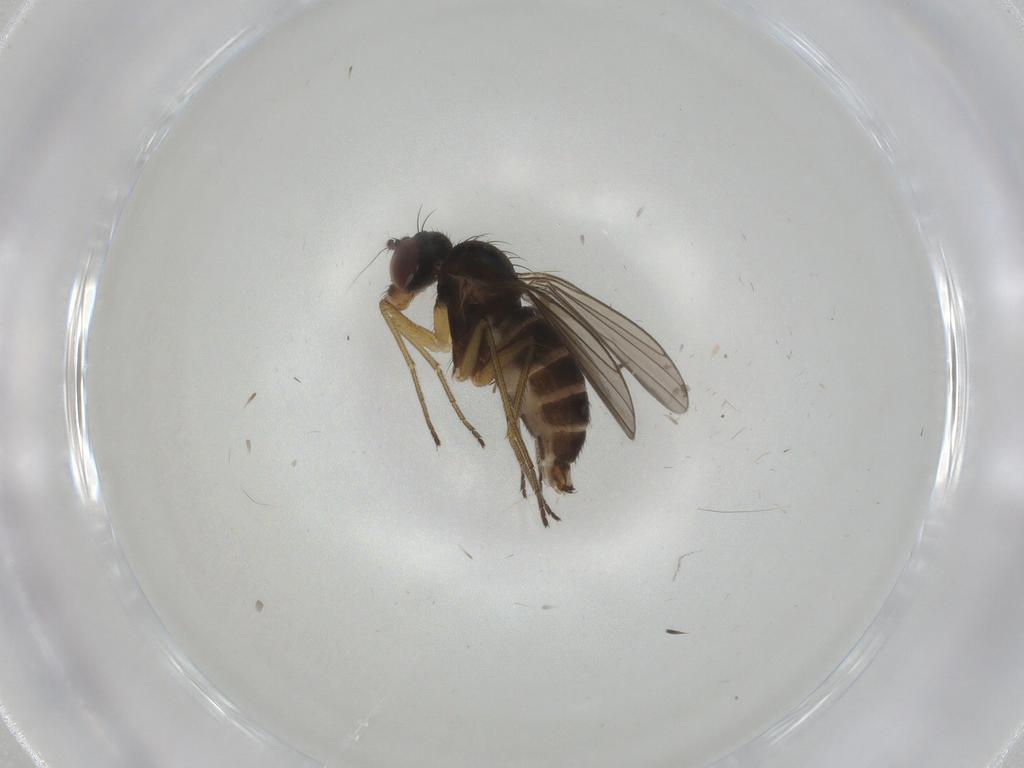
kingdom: Animalia
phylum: Arthropoda
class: Insecta
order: Diptera
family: Dolichopodidae
